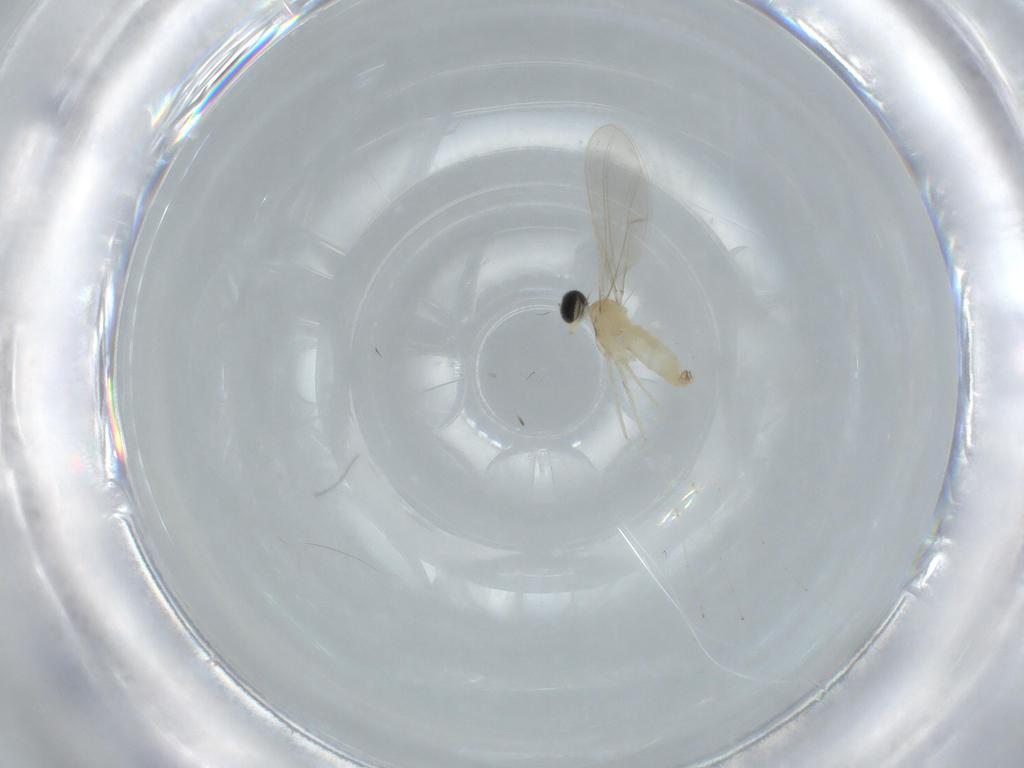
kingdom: Animalia
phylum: Arthropoda
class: Insecta
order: Diptera
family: Cecidomyiidae
